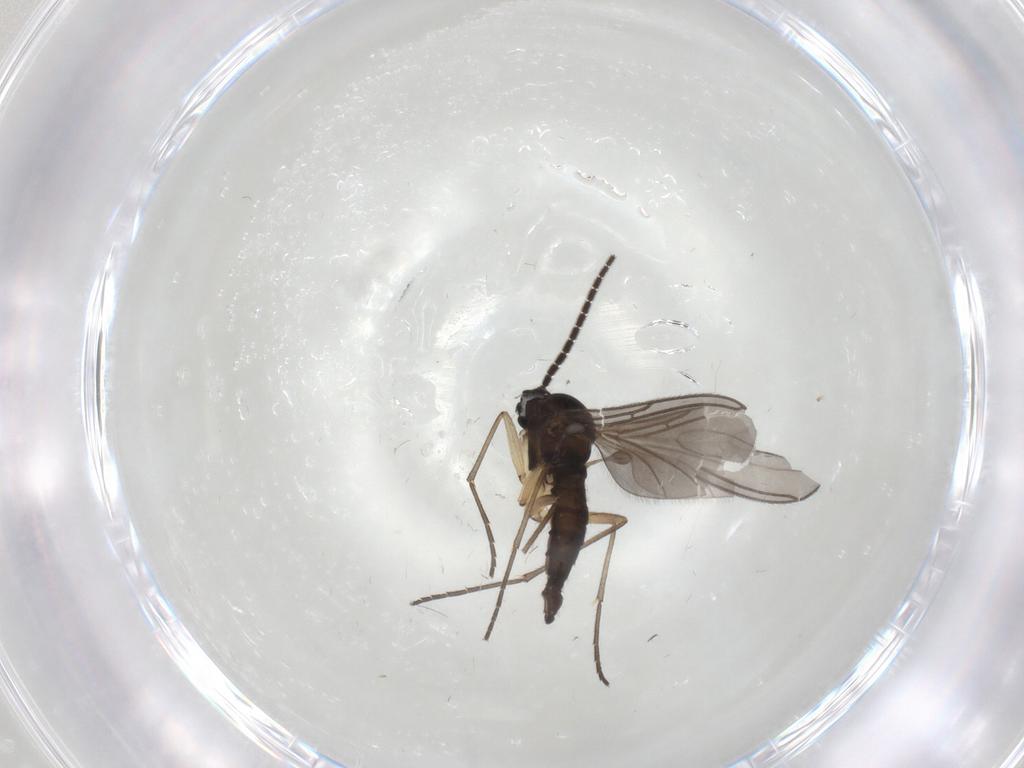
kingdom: Animalia
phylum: Arthropoda
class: Insecta
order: Diptera
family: Sciaridae
